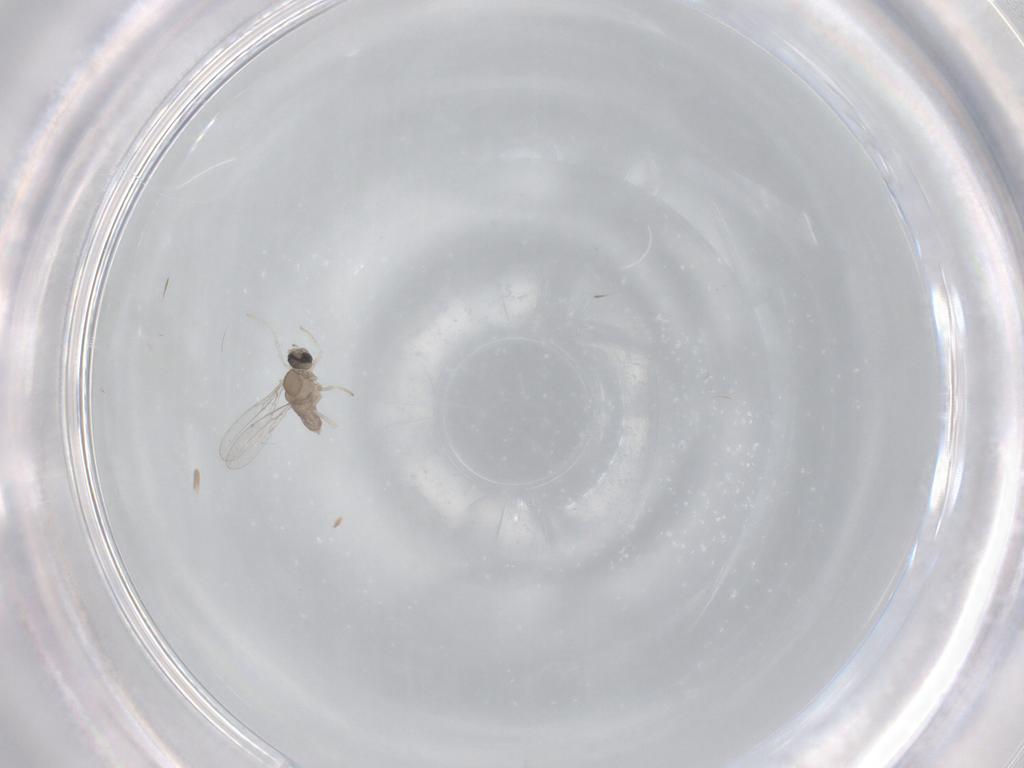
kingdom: Animalia
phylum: Arthropoda
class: Insecta
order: Diptera
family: Cecidomyiidae
